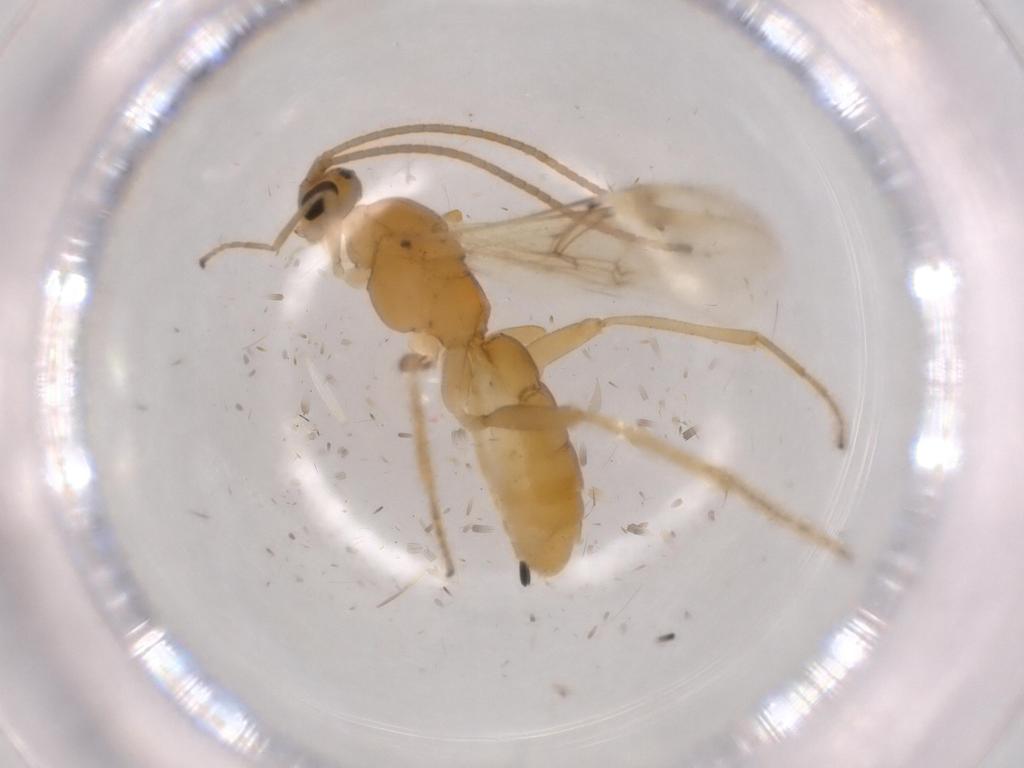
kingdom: Animalia
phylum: Arthropoda
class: Insecta
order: Hymenoptera
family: Formicidae
